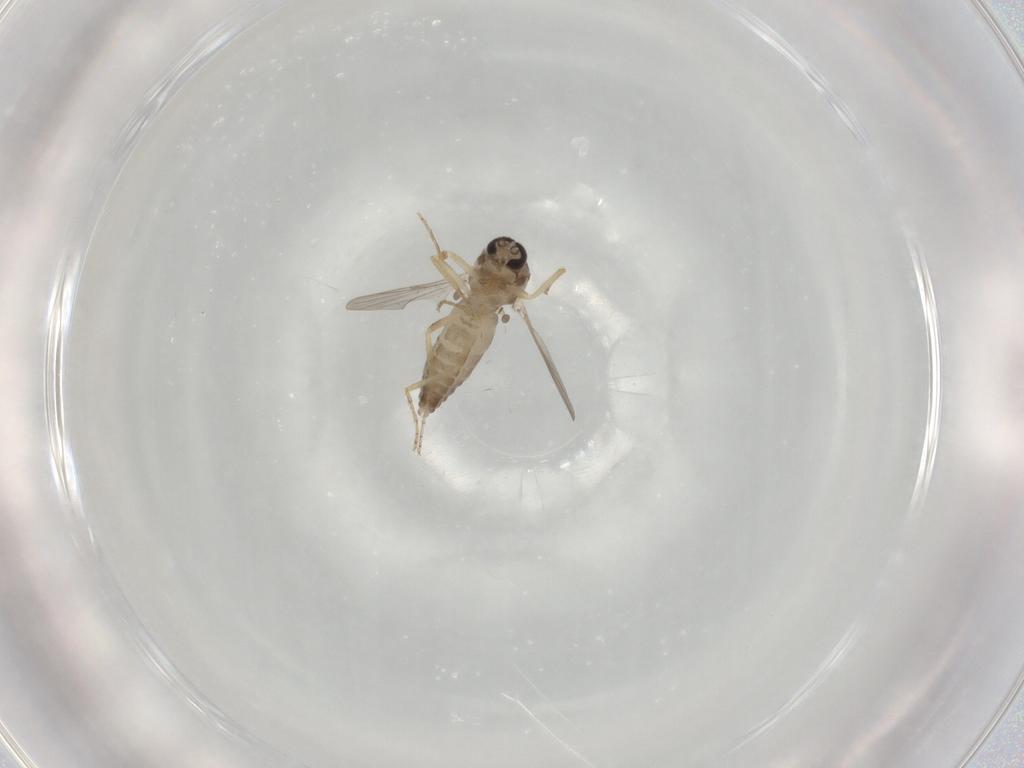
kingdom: Animalia
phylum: Arthropoda
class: Insecta
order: Diptera
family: Ceratopogonidae
